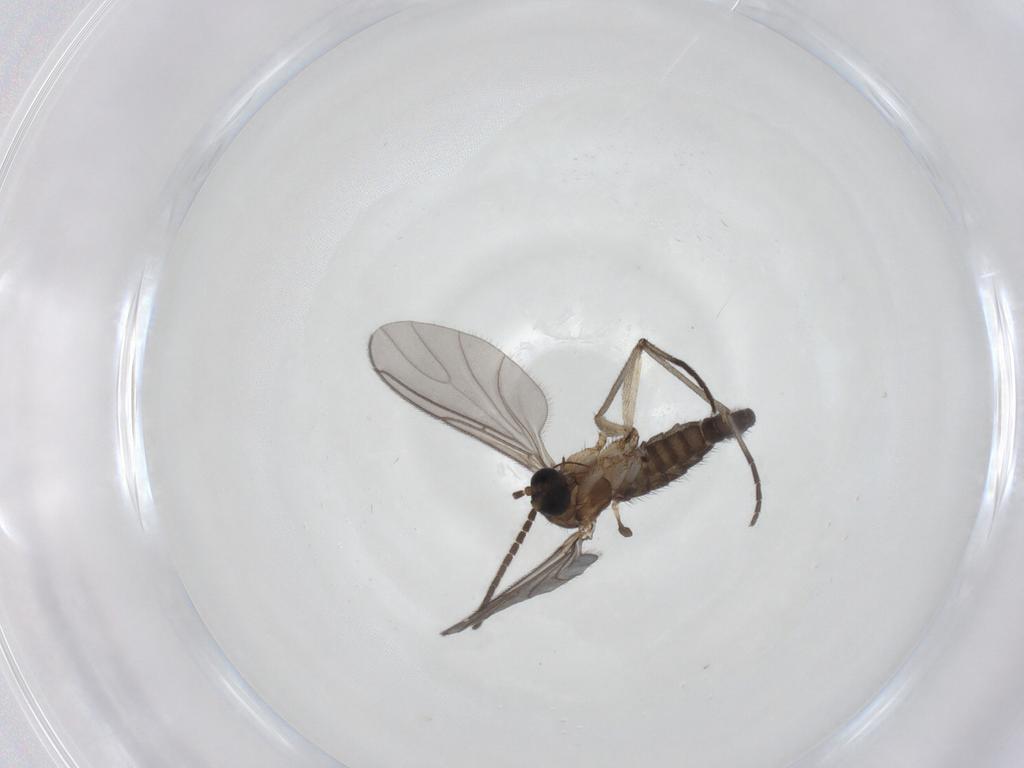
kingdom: Animalia
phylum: Arthropoda
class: Insecta
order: Diptera
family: Sciaridae
